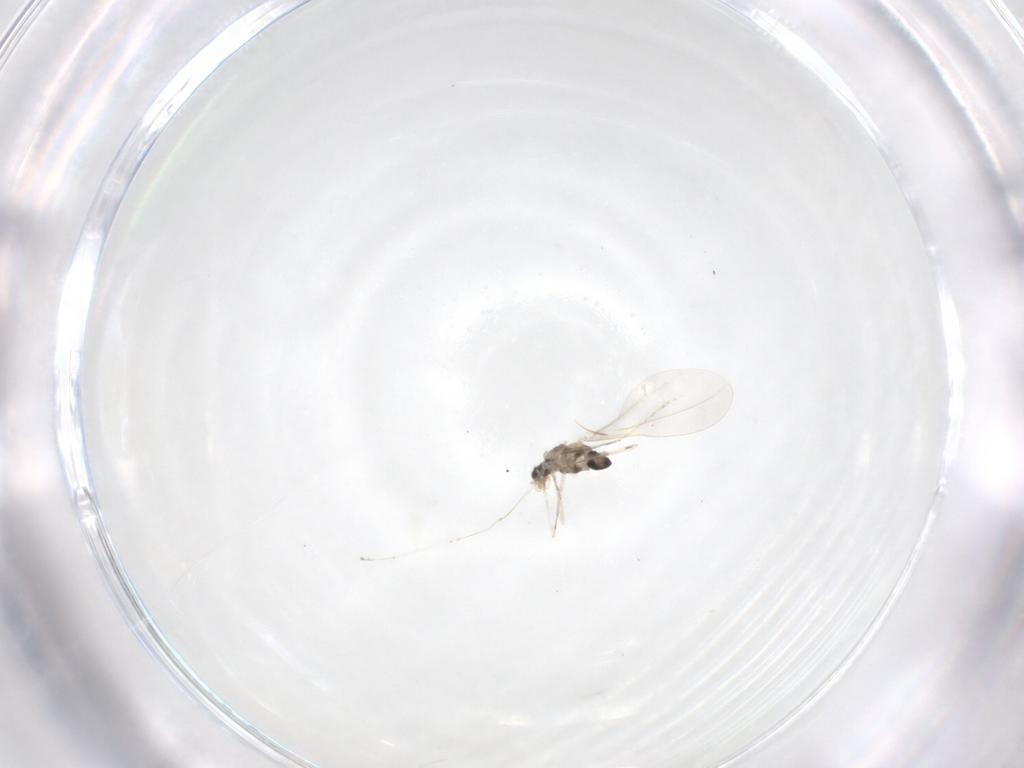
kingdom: Animalia
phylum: Arthropoda
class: Insecta
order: Diptera
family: Cecidomyiidae
